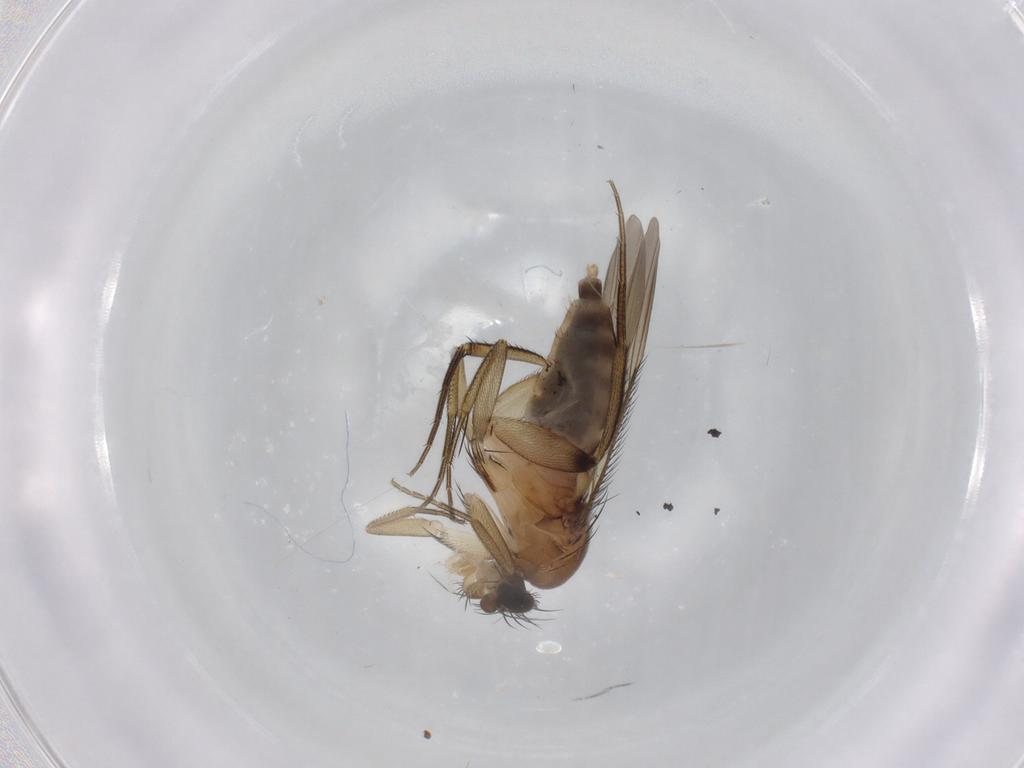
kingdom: Animalia
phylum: Arthropoda
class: Insecta
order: Diptera
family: Phoridae
